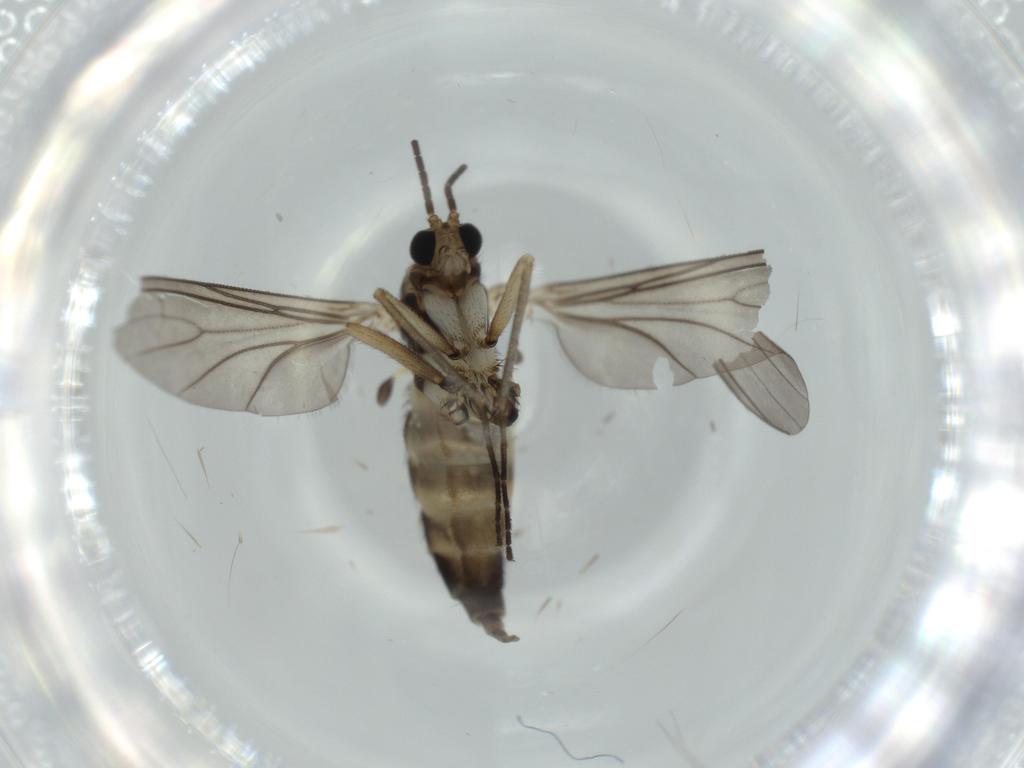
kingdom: Animalia
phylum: Arthropoda
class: Insecta
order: Diptera
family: Sciaridae
